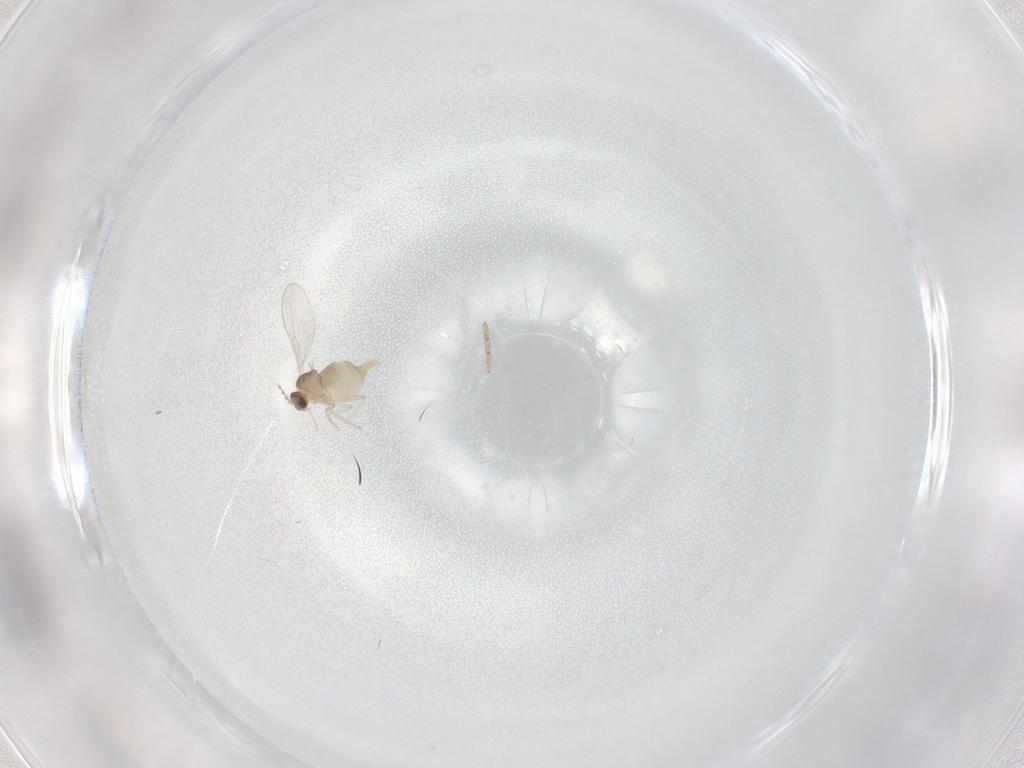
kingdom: Animalia
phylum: Arthropoda
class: Insecta
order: Diptera
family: Cecidomyiidae
